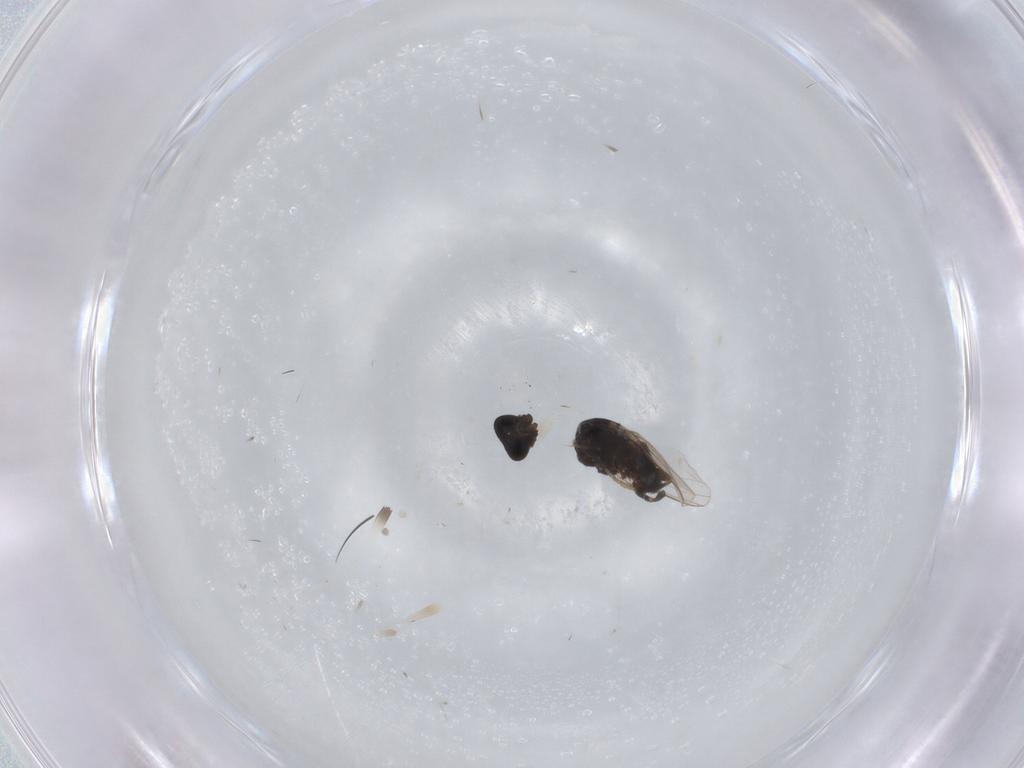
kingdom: Animalia
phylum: Arthropoda
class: Insecta
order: Diptera
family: Milichiidae
